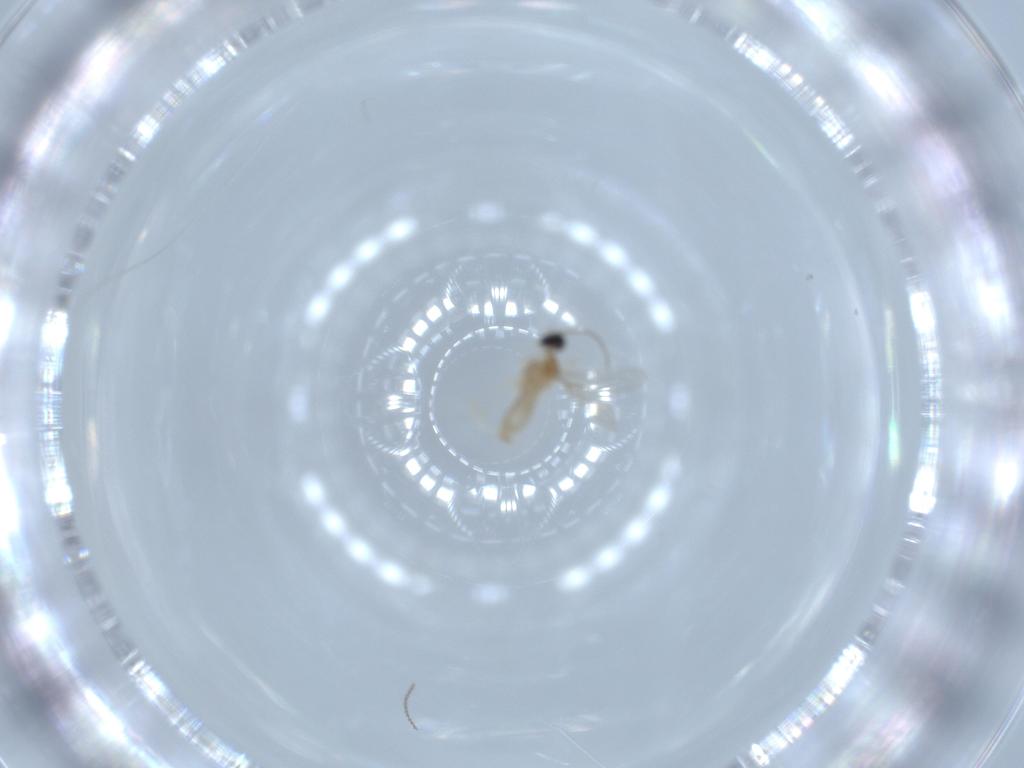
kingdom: Animalia
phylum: Arthropoda
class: Insecta
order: Diptera
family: Cecidomyiidae
